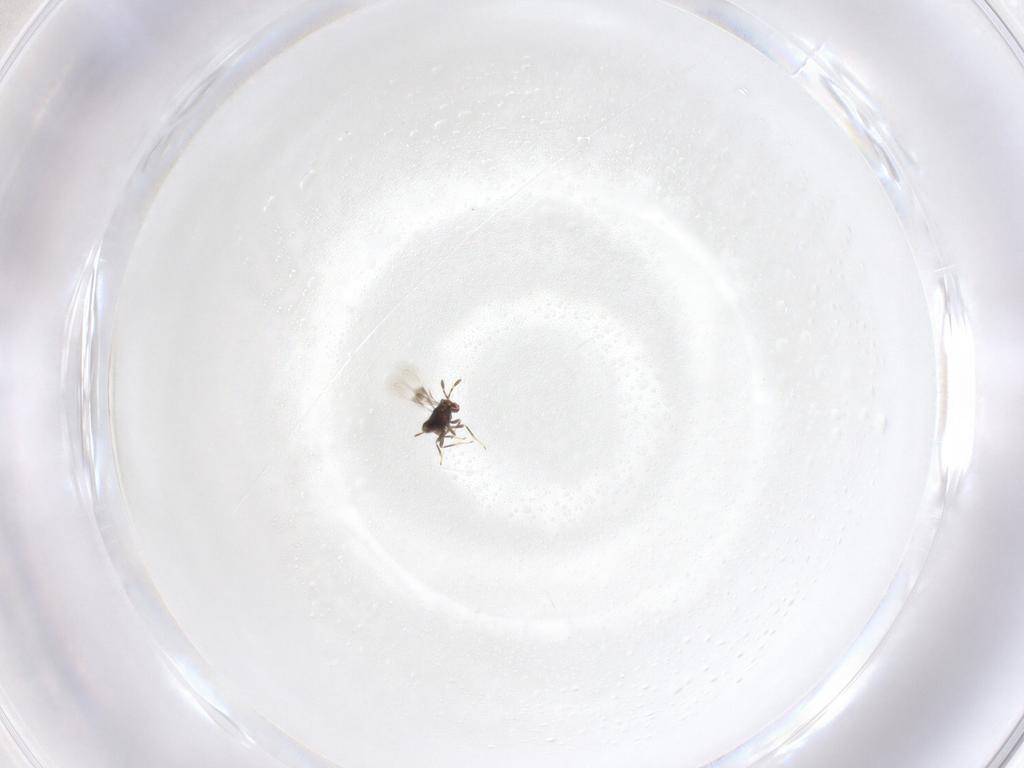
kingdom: Animalia
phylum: Arthropoda
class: Insecta
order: Hymenoptera
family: Azotidae
